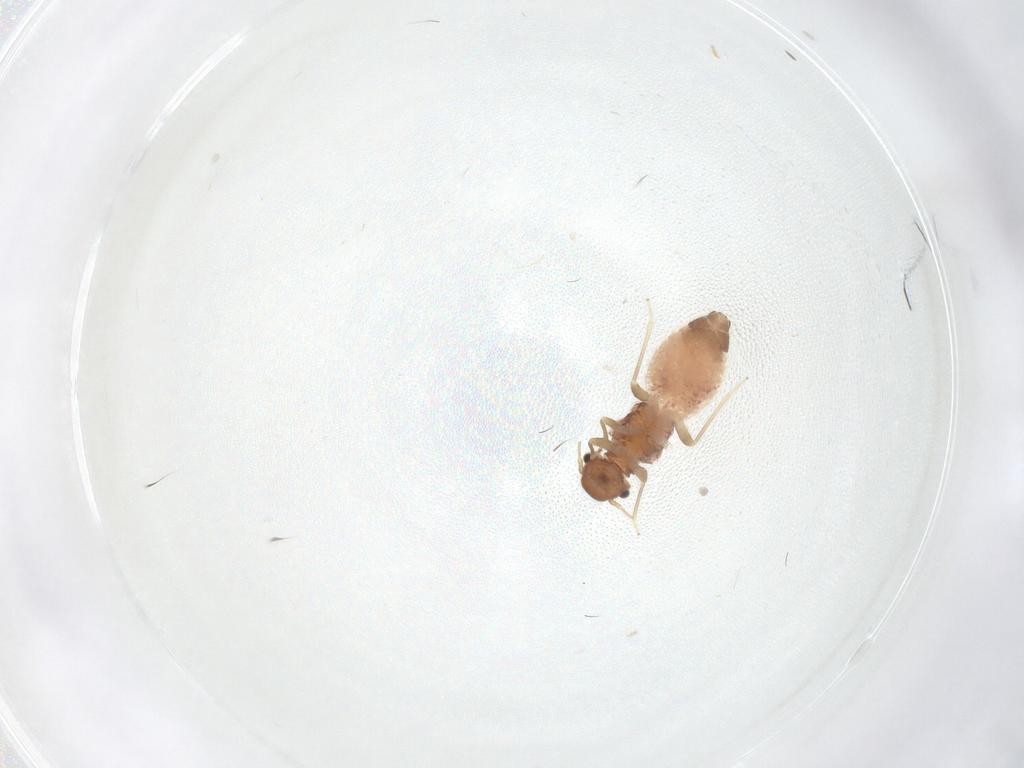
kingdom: Animalia
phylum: Arthropoda
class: Insecta
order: Psocodea
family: Archipsocidae
